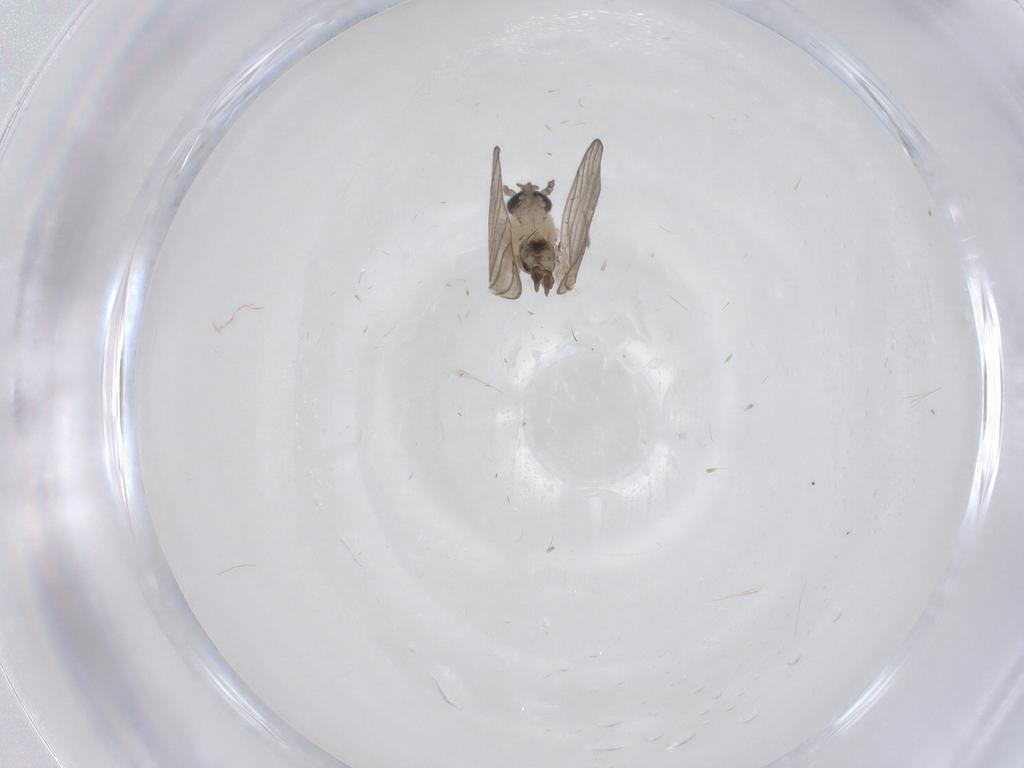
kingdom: Animalia
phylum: Arthropoda
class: Insecta
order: Diptera
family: Psychodidae
